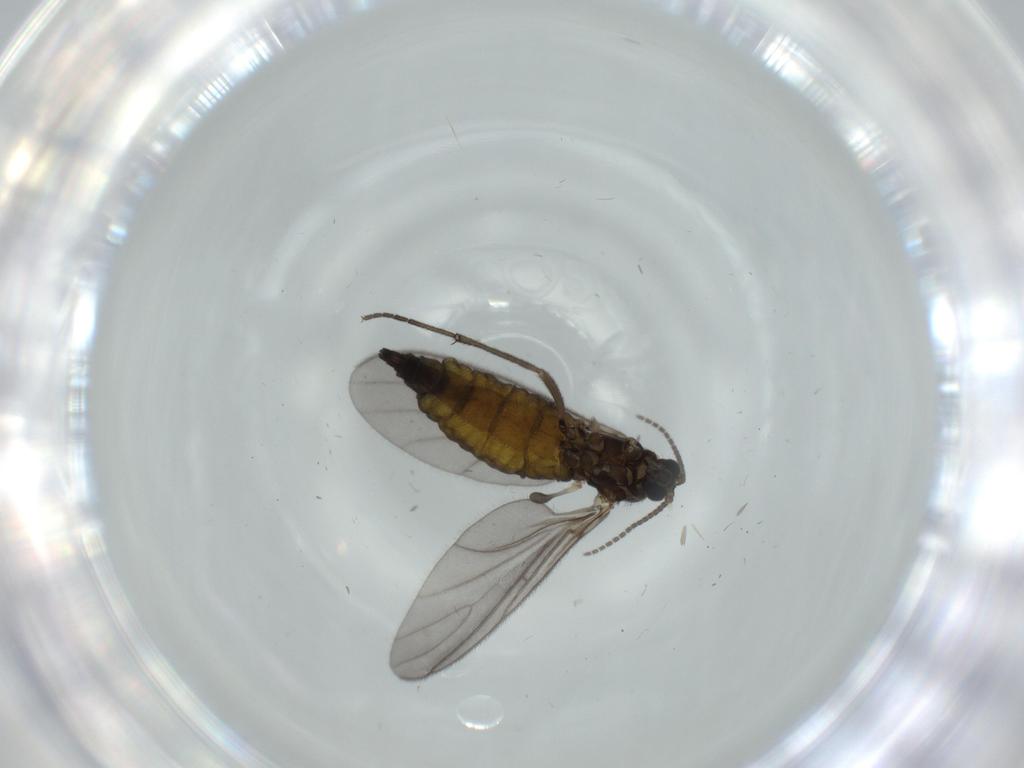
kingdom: Animalia
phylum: Arthropoda
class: Insecta
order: Diptera
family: Sciaridae
